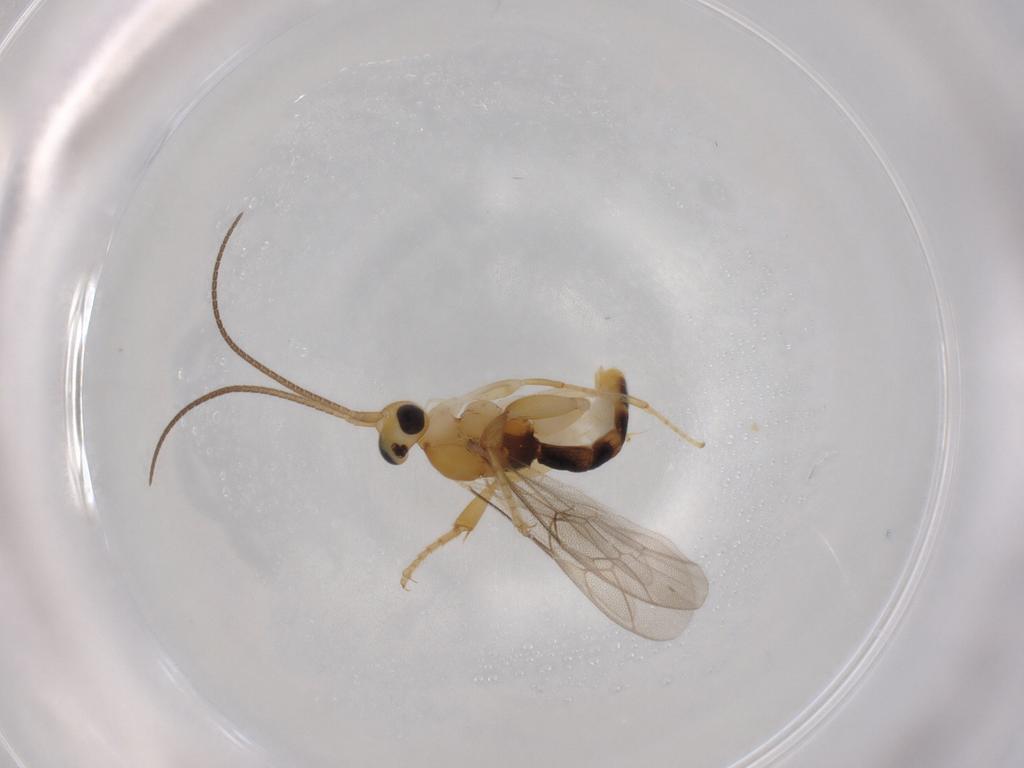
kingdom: Animalia
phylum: Arthropoda
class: Insecta
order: Hymenoptera
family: Ichneumonidae
